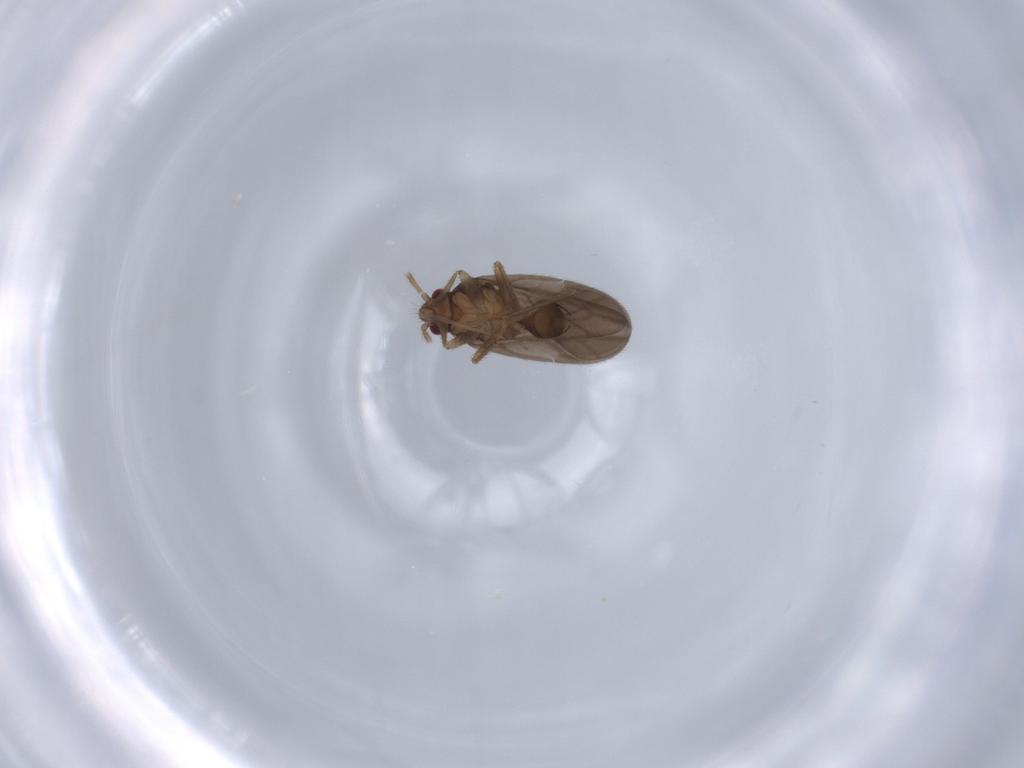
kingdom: Animalia
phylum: Arthropoda
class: Insecta
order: Hemiptera
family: Ceratocombidae
